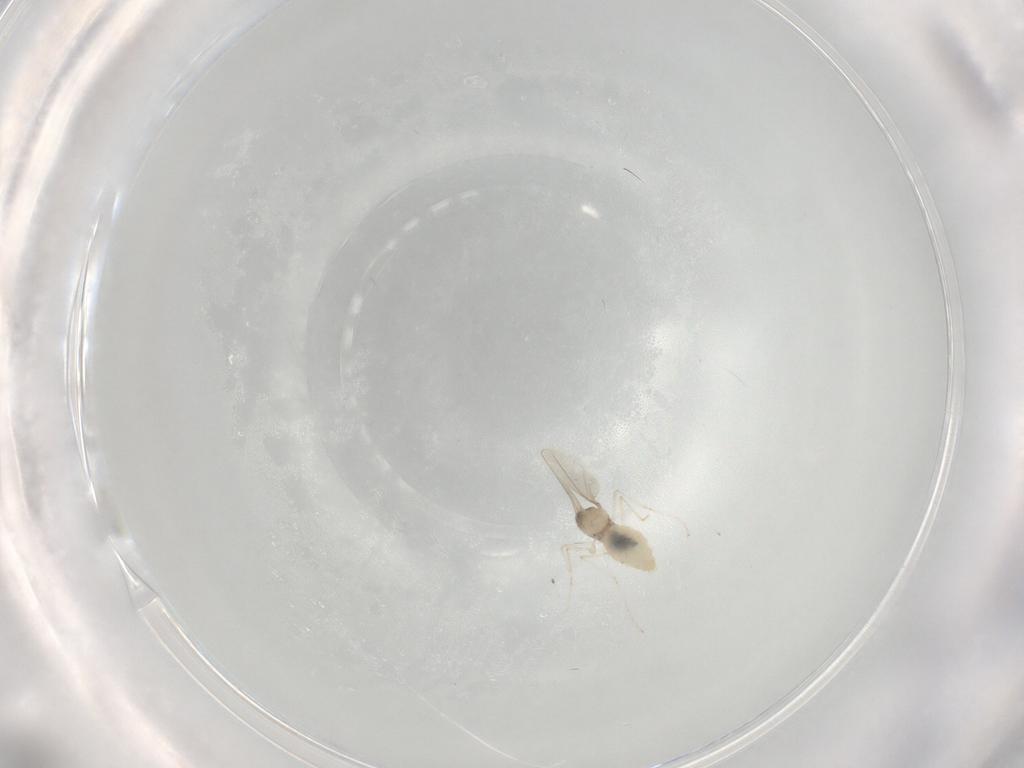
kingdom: Animalia
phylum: Arthropoda
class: Insecta
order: Diptera
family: Cecidomyiidae
